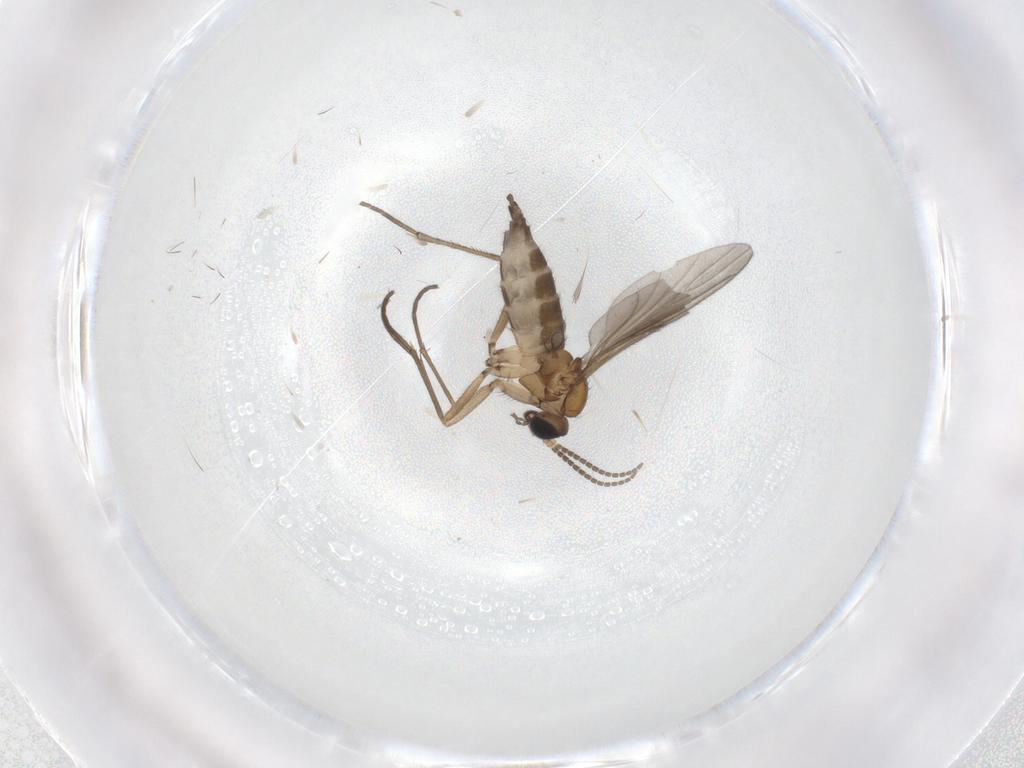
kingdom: Animalia
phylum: Arthropoda
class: Insecta
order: Diptera
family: Sciaridae
